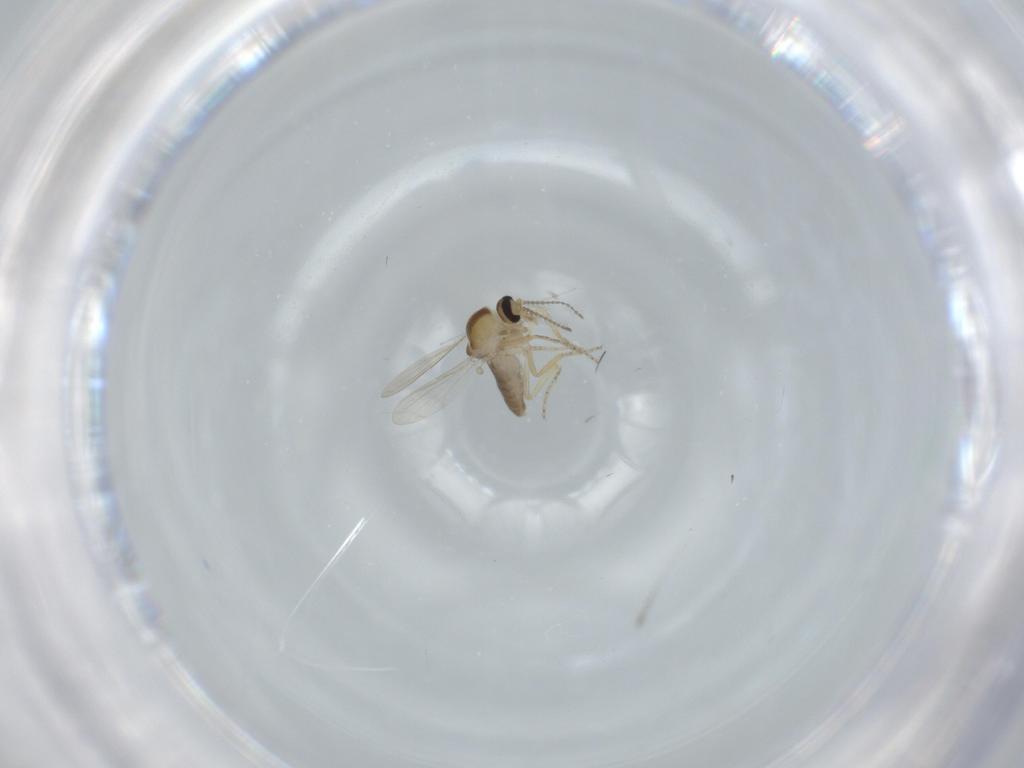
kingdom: Animalia
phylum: Arthropoda
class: Insecta
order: Diptera
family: Ceratopogonidae
